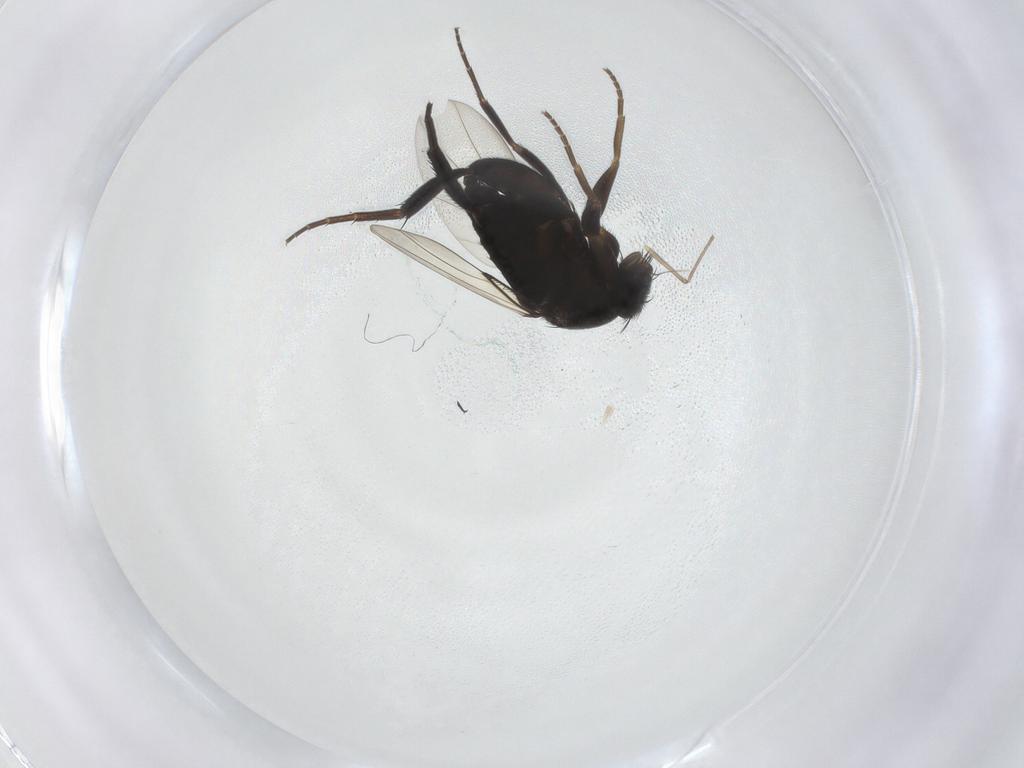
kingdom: Animalia
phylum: Arthropoda
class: Insecta
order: Diptera
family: Phoridae
